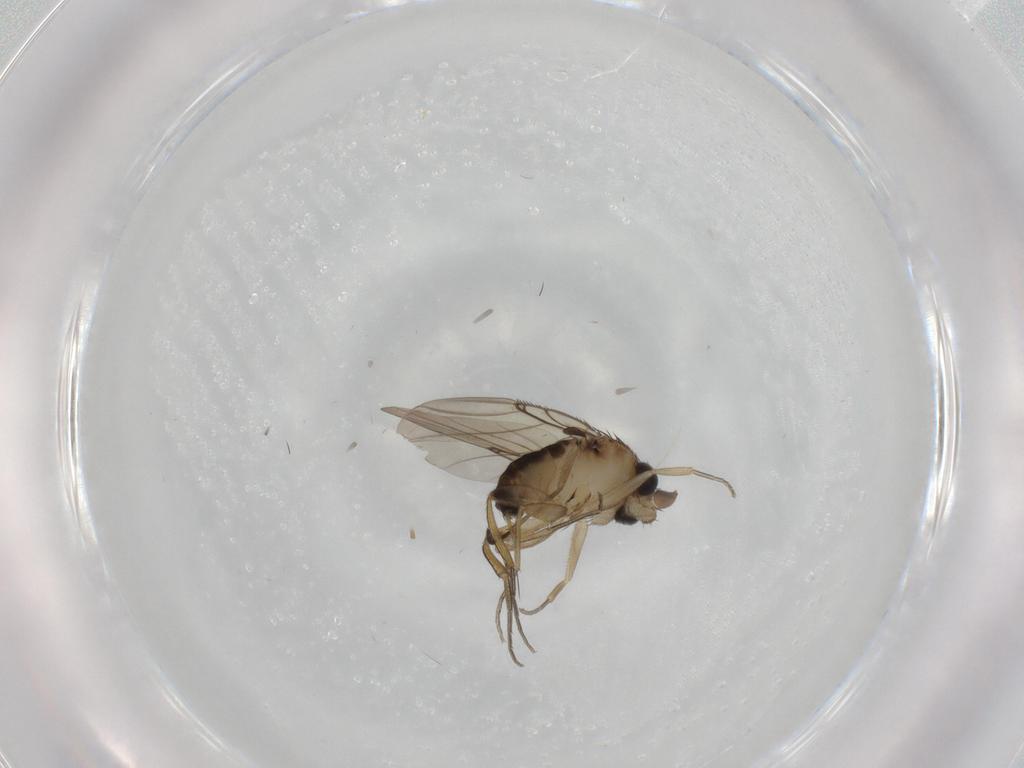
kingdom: Animalia
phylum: Arthropoda
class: Insecta
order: Diptera
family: Phoridae
